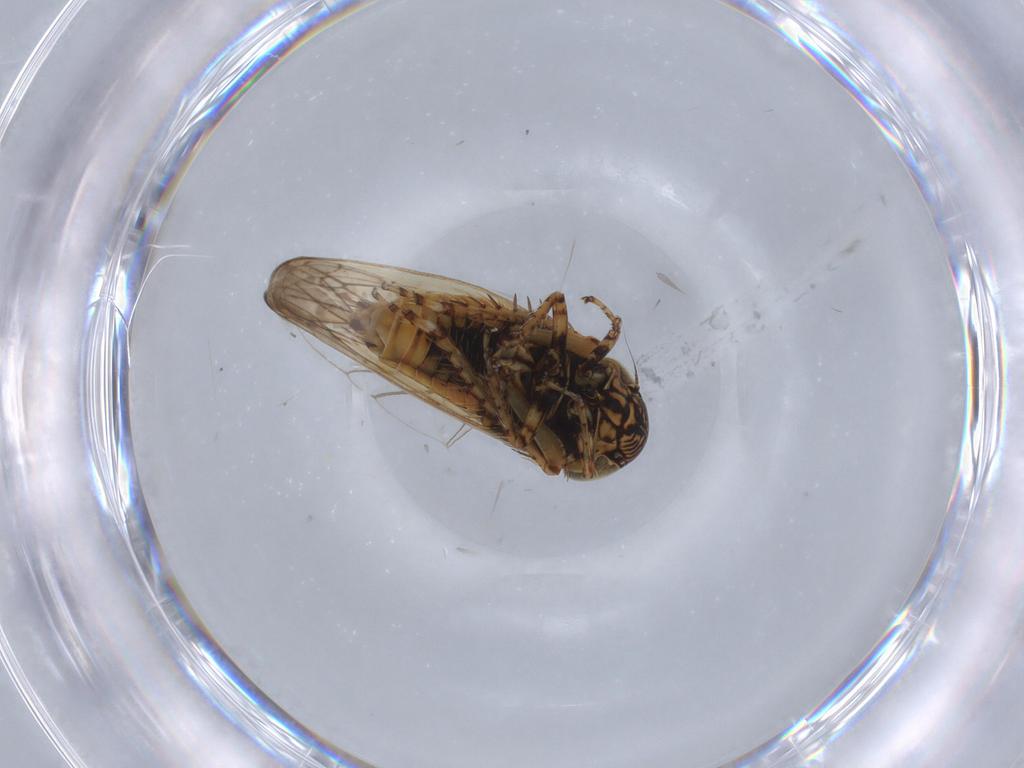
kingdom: Animalia
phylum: Arthropoda
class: Insecta
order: Hemiptera
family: Cicadellidae
